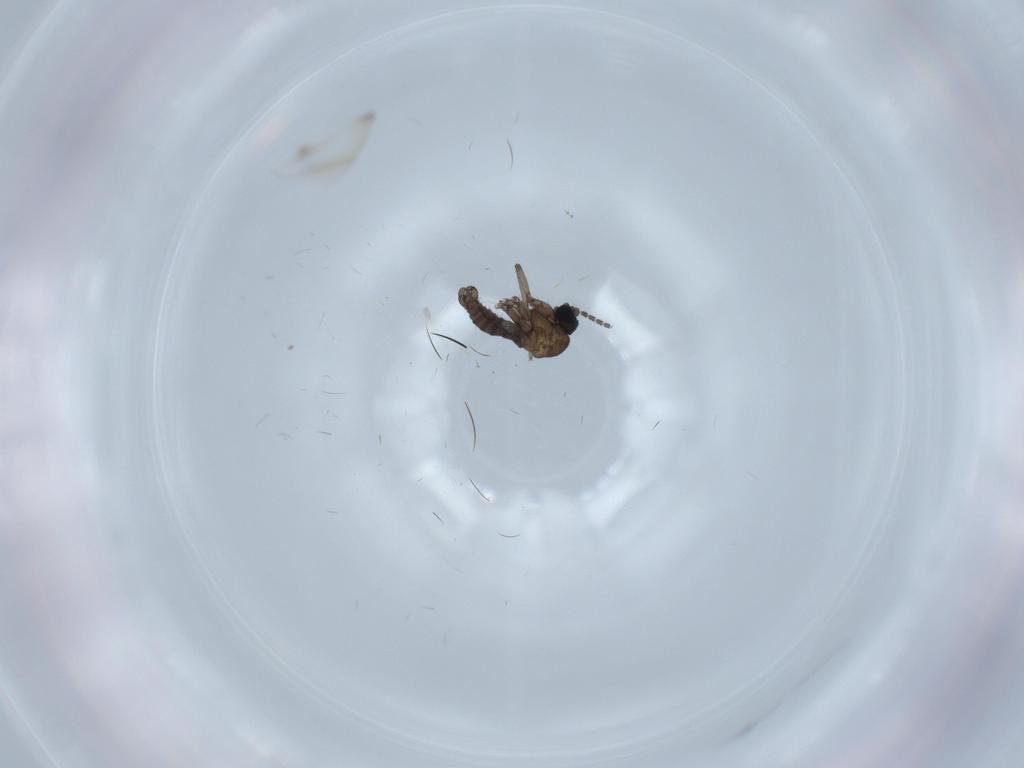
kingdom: Animalia
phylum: Arthropoda
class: Insecta
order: Diptera
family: Sciaridae
